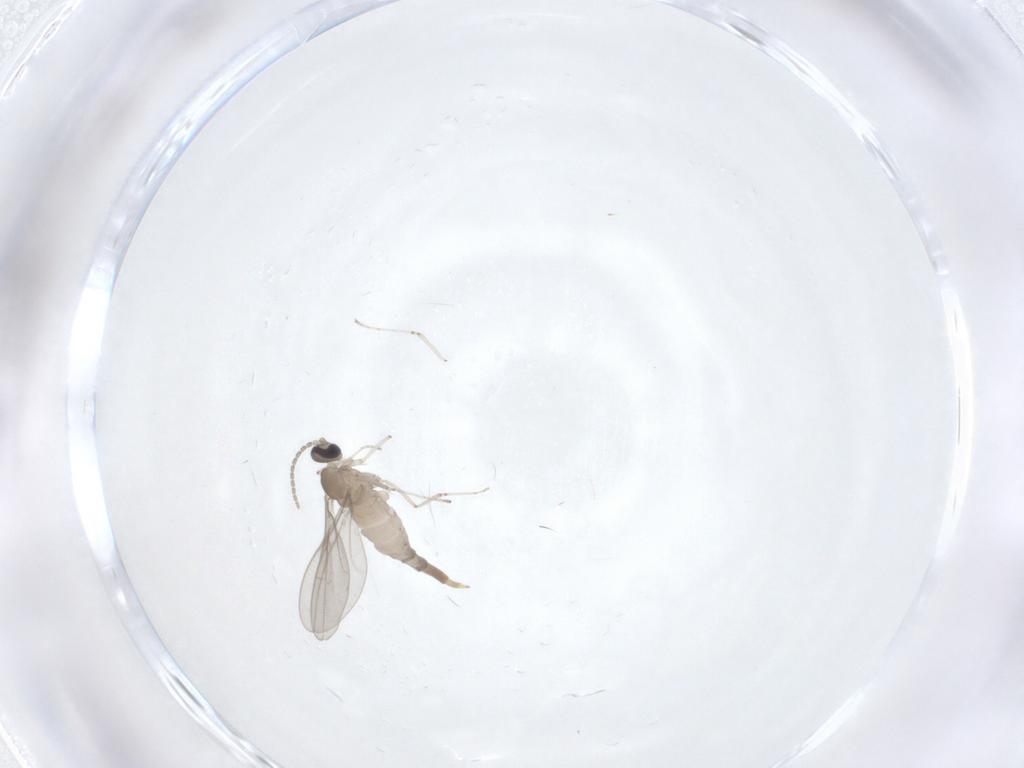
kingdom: Animalia
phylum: Arthropoda
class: Insecta
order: Diptera
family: Cecidomyiidae
